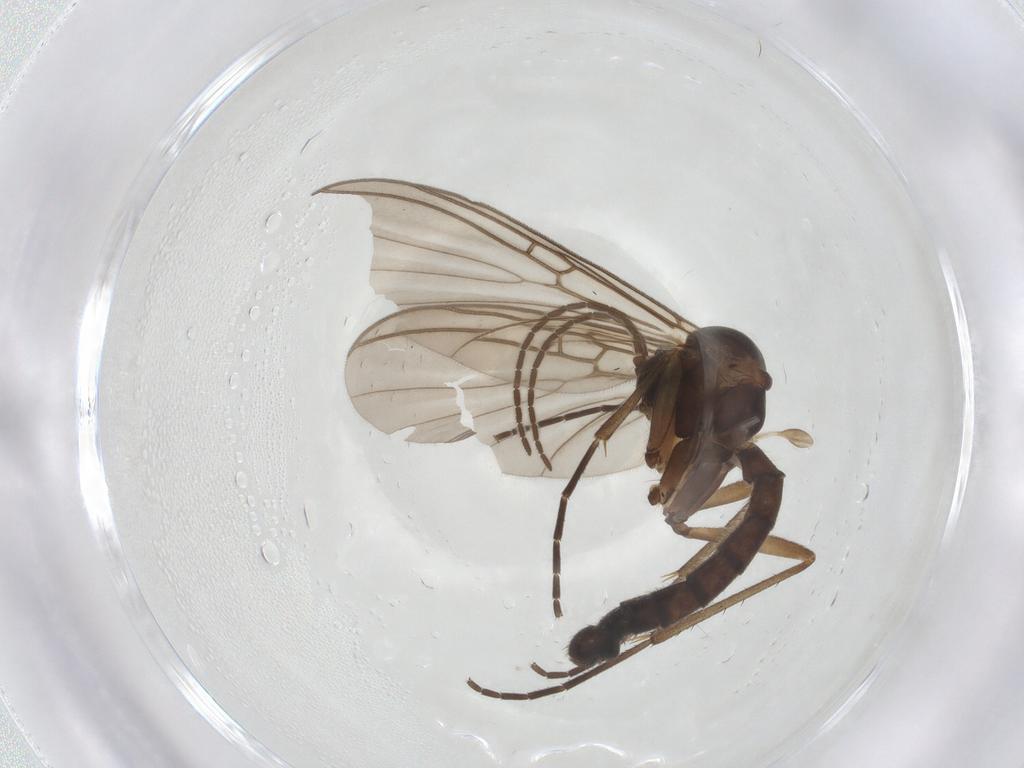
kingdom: Animalia
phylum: Arthropoda
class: Insecta
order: Diptera
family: Mycetophilidae
